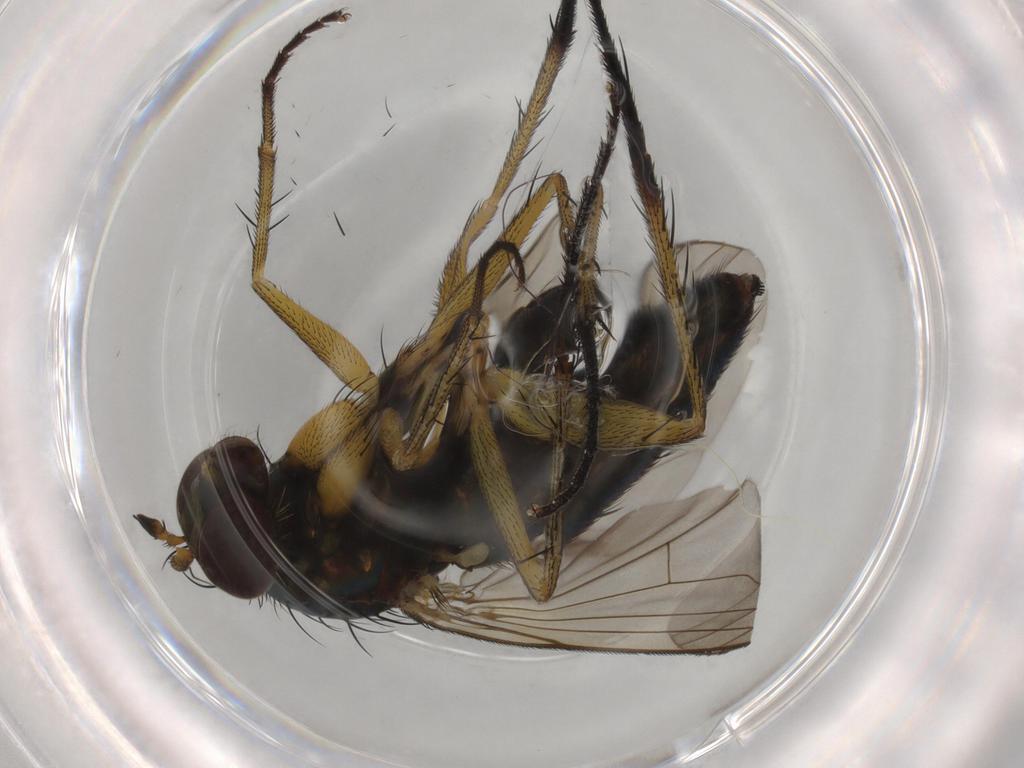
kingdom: Animalia
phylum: Arthropoda
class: Insecta
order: Diptera
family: Dolichopodidae
